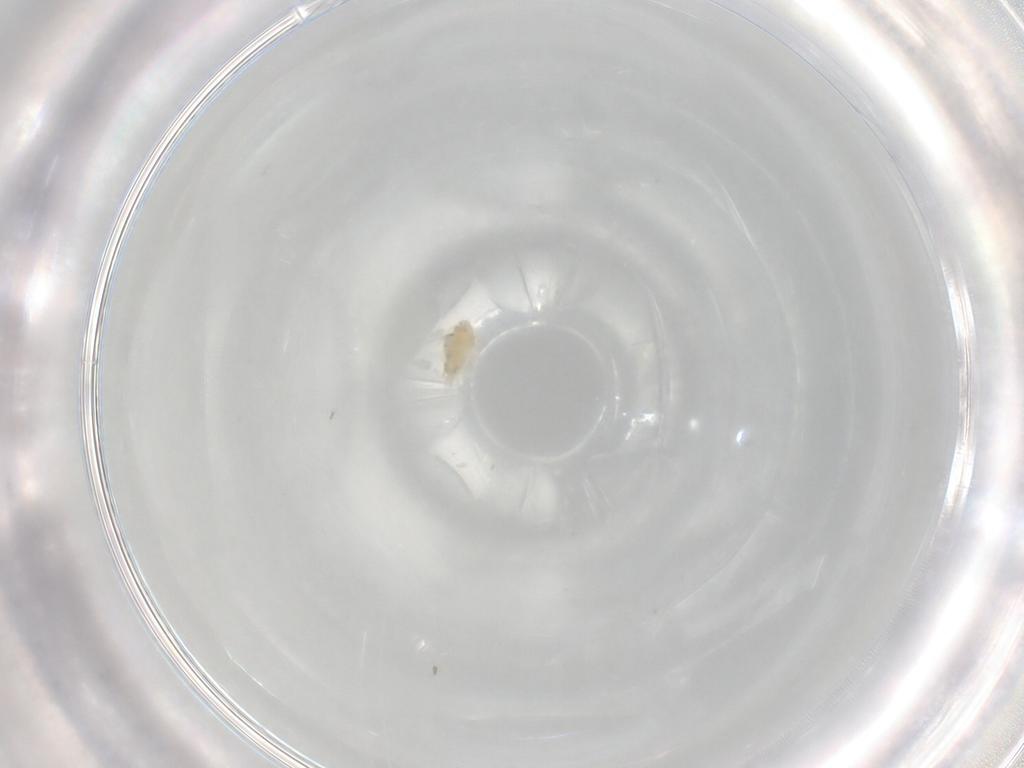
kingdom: Animalia
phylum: Arthropoda
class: Arachnida
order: Trombidiformes
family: Eupodidae
